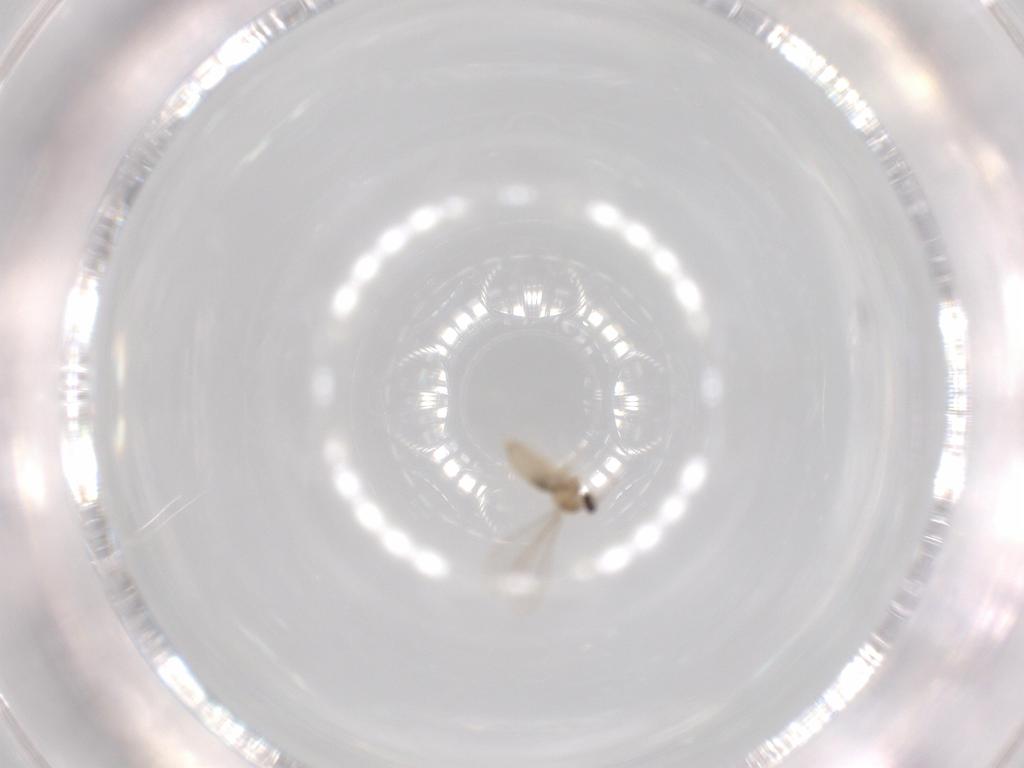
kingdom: Animalia
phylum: Arthropoda
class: Insecta
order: Diptera
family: Cecidomyiidae
